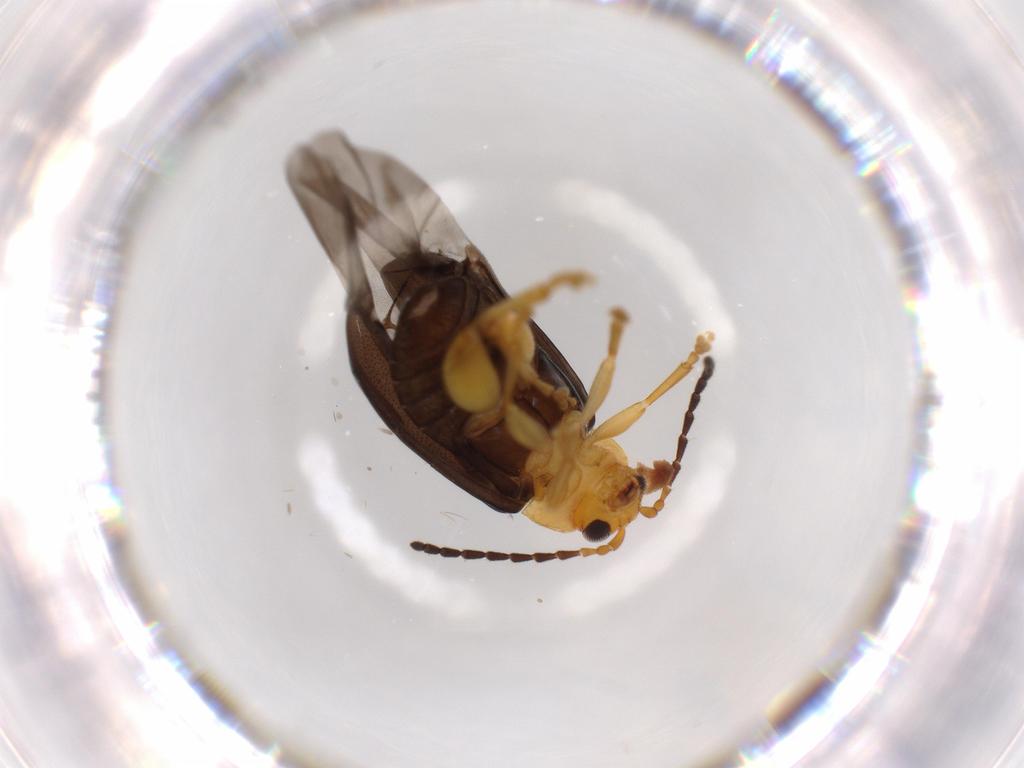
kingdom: Animalia
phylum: Arthropoda
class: Insecta
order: Coleoptera
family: Chrysomelidae
